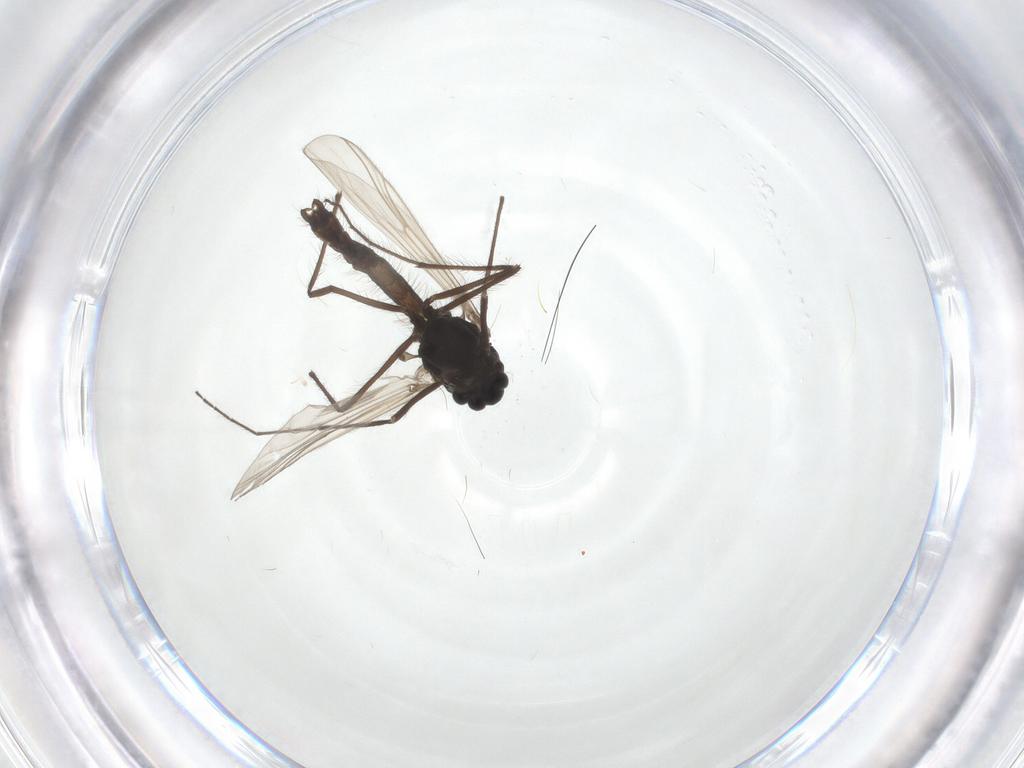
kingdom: Animalia
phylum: Arthropoda
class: Insecta
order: Diptera
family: Chironomidae
